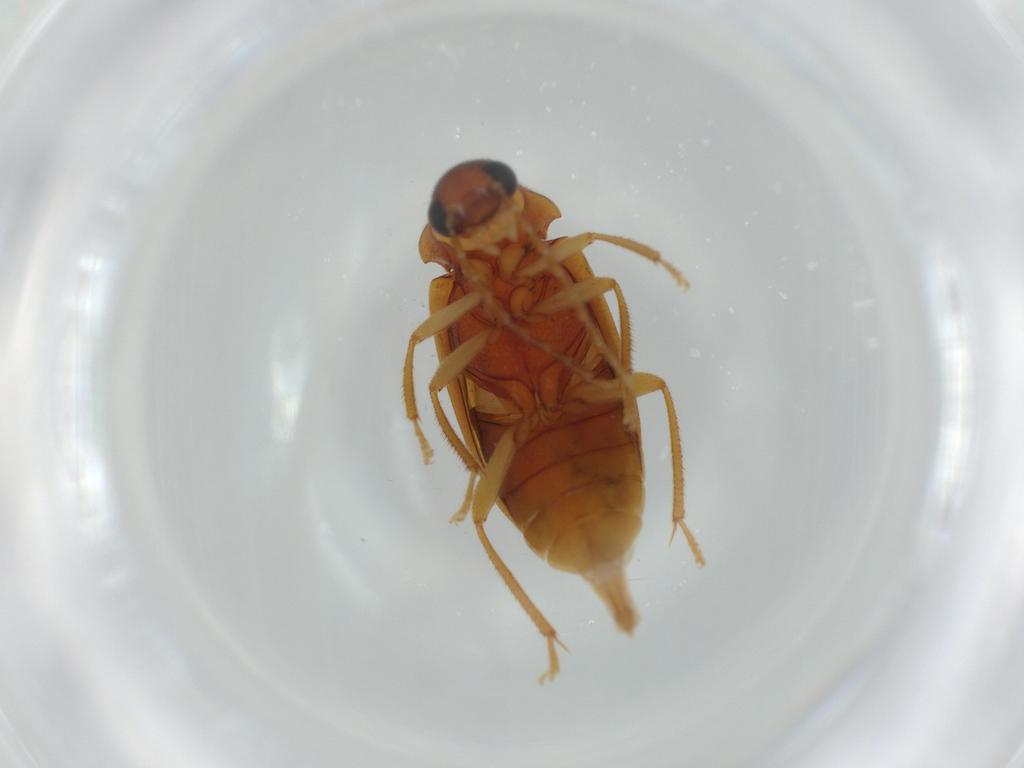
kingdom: Animalia
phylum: Arthropoda
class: Insecta
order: Coleoptera
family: Ptilodactylidae
